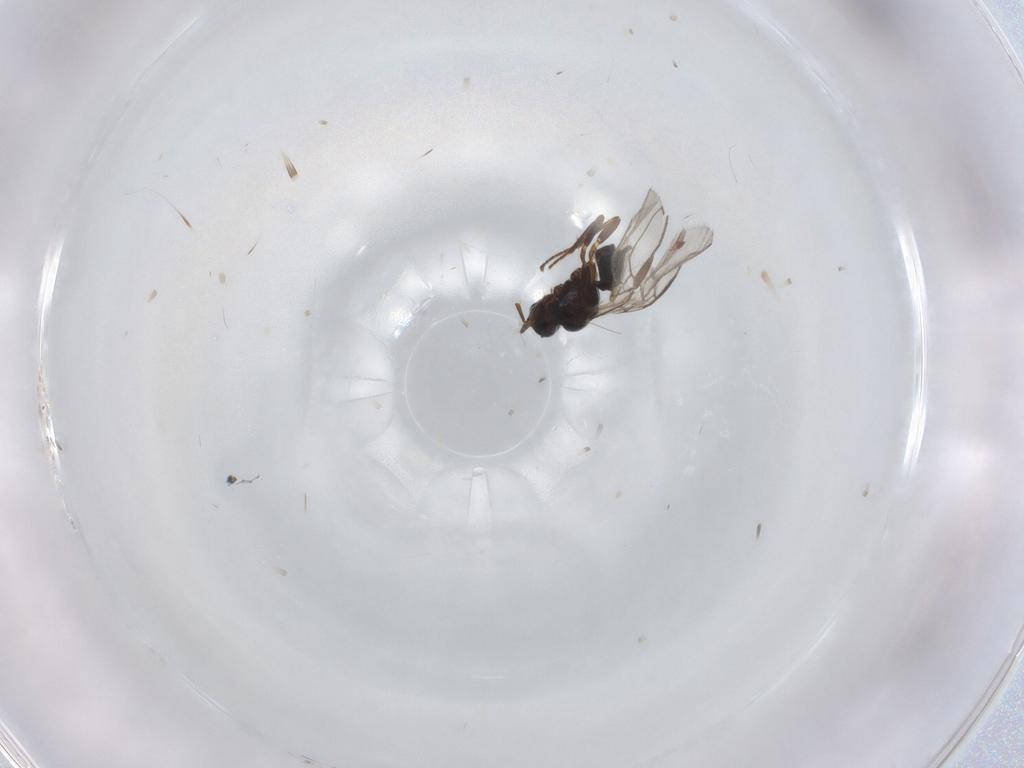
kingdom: Animalia
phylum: Arthropoda
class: Insecta
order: Hymenoptera
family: Braconidae
